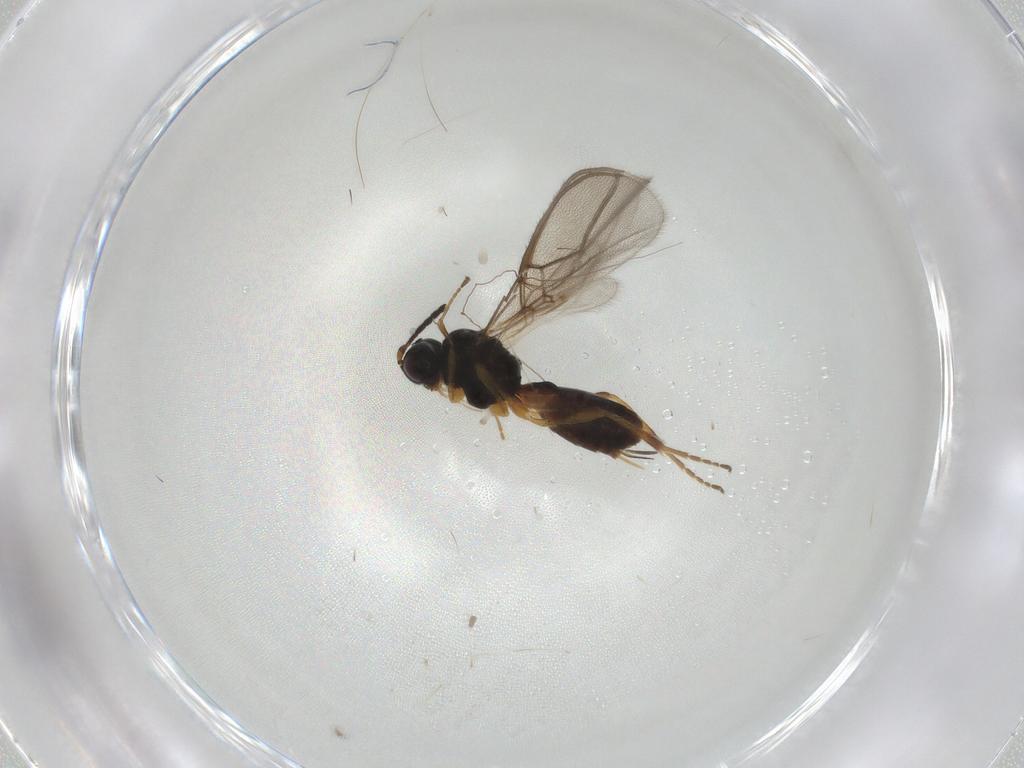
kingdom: Animalia
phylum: Arthropoda
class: Insecta
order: Hymenoptera
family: Braconidae
